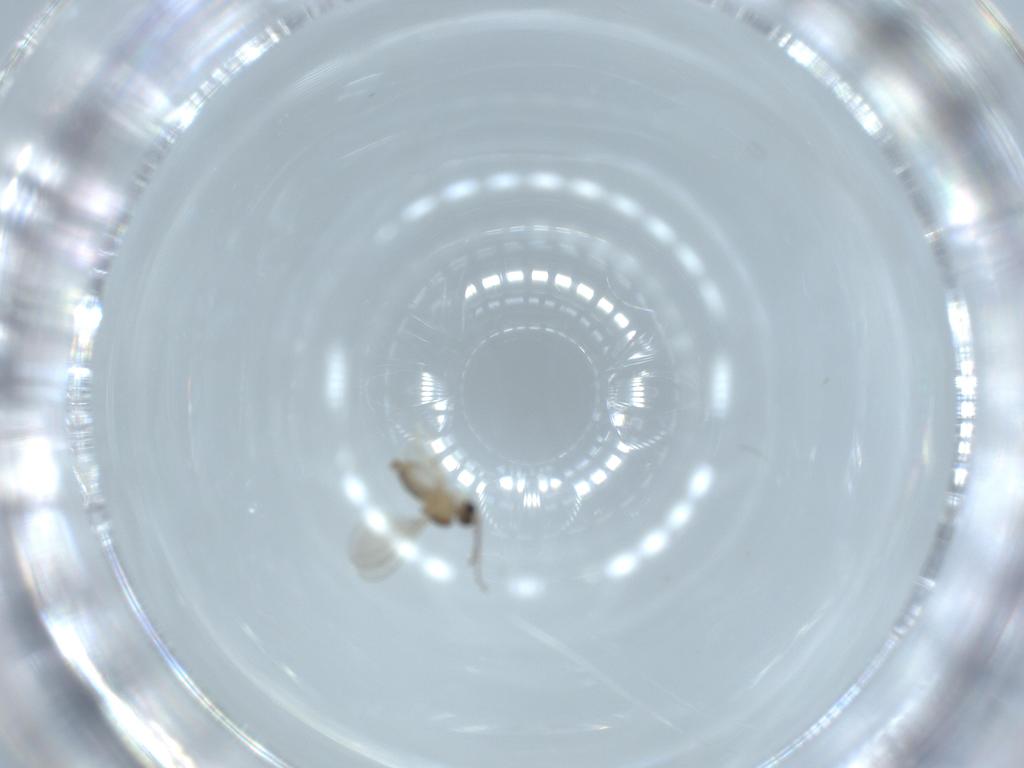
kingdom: Animalia
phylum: Arthropoda
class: Insecta
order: Diptera
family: Cecidomyiidae
